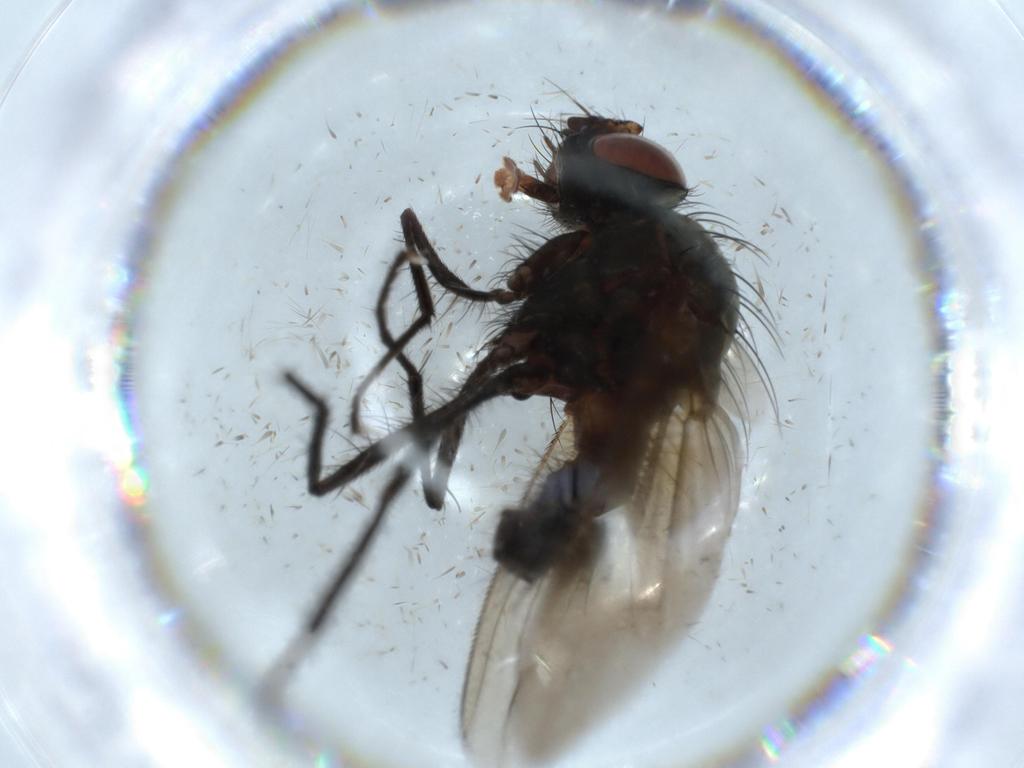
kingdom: Animalia
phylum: Arthropoda
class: Insecta
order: Diptera
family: Anthomyiidae
